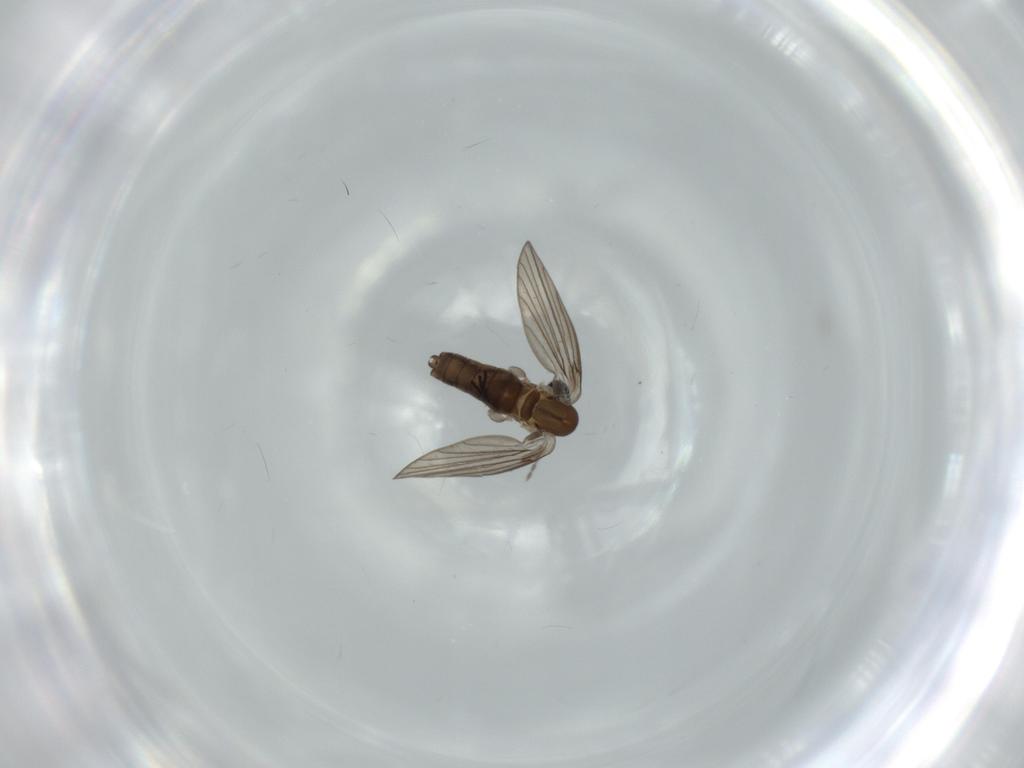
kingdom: Animalia
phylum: Arthropoda
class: Insecta
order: Diptera
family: Psychodidae
